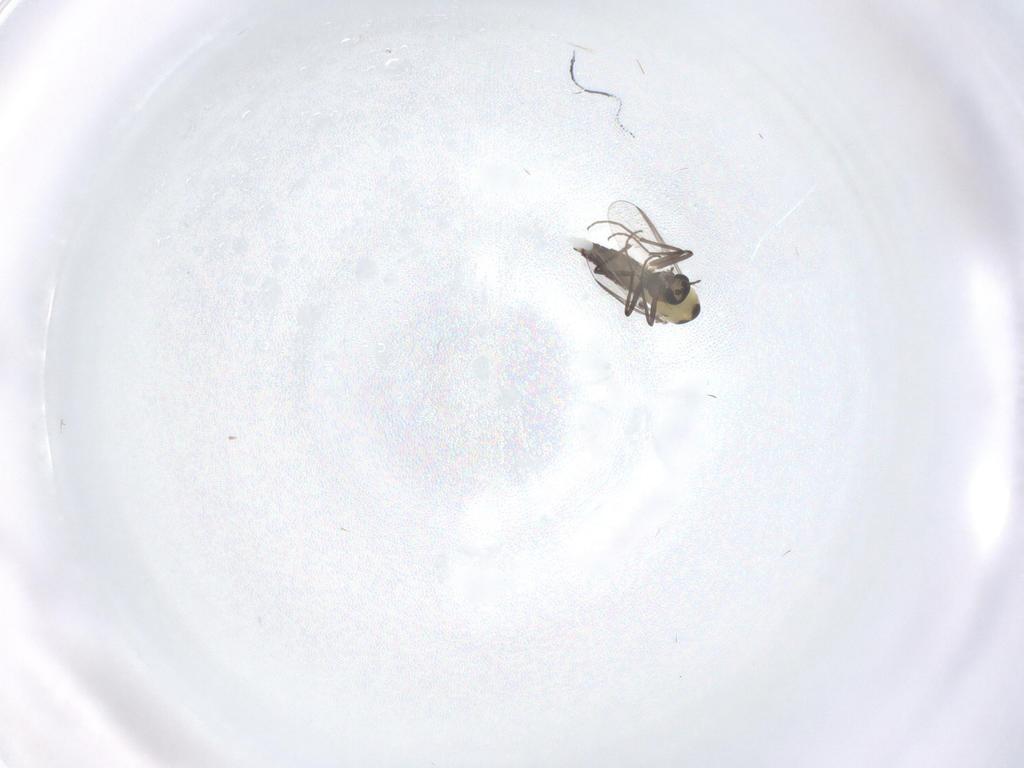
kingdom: Animalia
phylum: Arthropoda
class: Insecta
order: Diptera
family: Chironomidae
